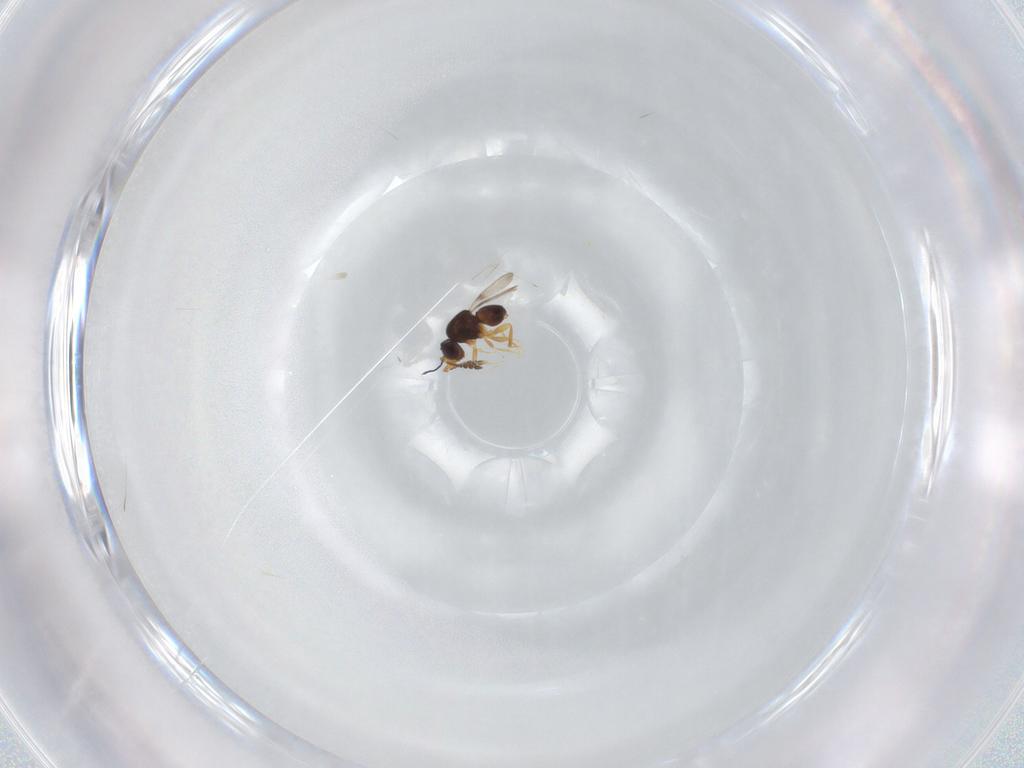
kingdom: Animalia
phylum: Arthropoda
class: Insecta
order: Hymenoptera
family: Ceraphronidae
